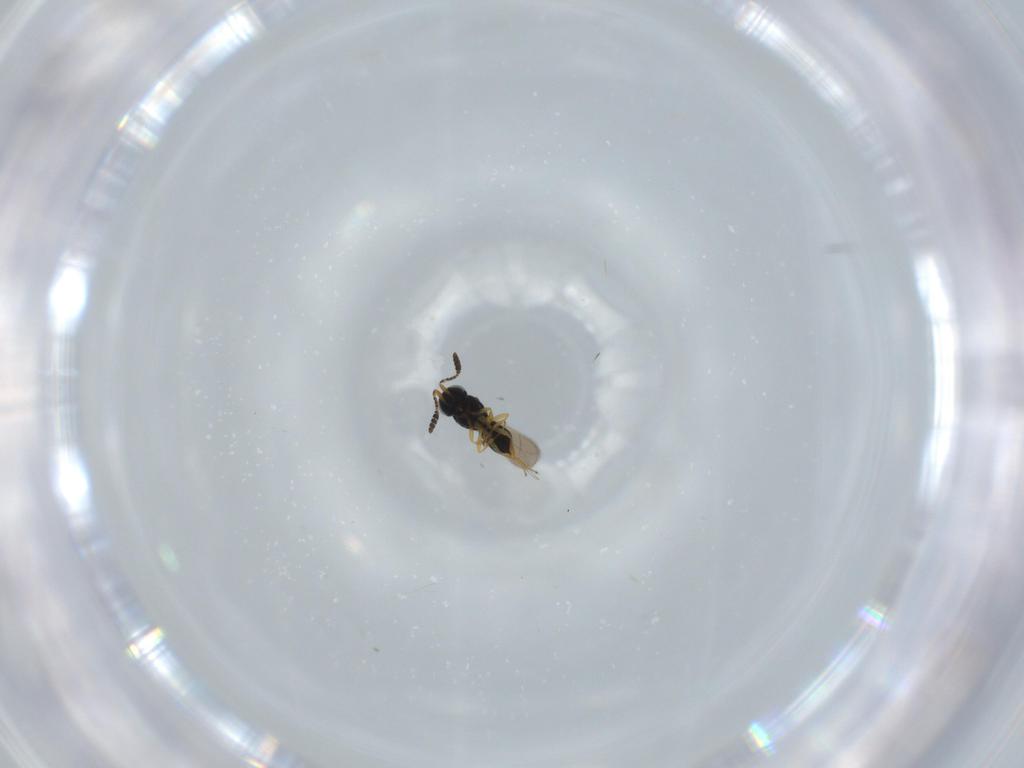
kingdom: Animalia
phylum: Arthropoda
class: Insecta
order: Hymenoptera
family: Scelionidae
